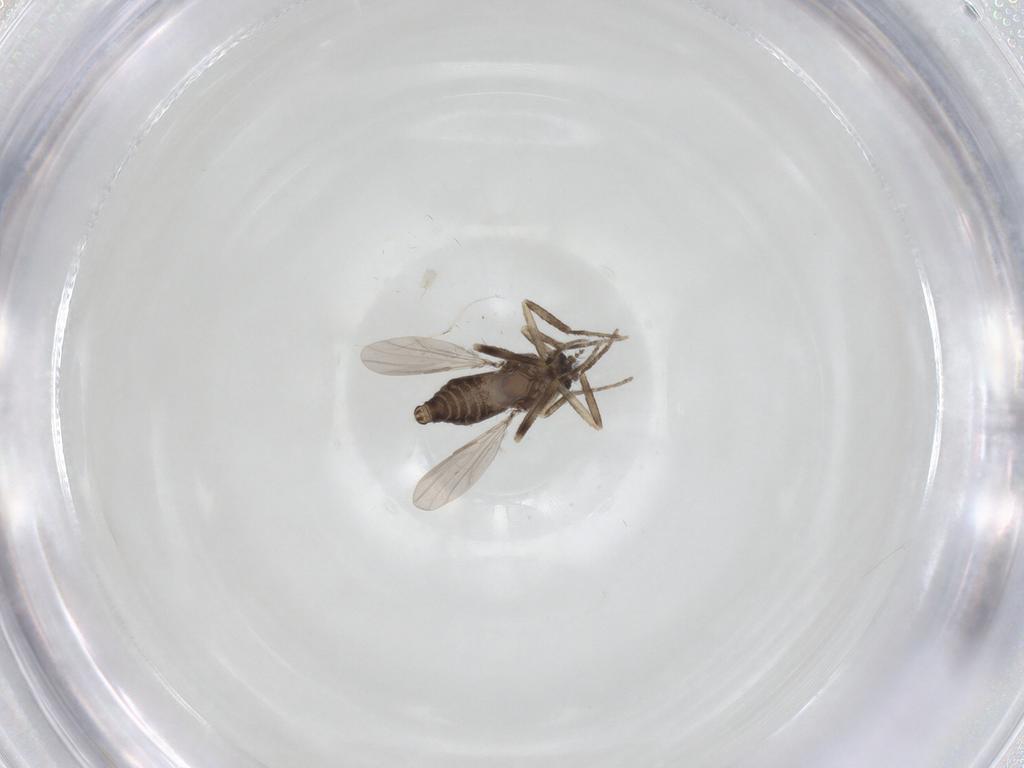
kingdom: Animalia
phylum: Arthropoda
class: Insecta
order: Diptera
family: Ceratopogonidae
